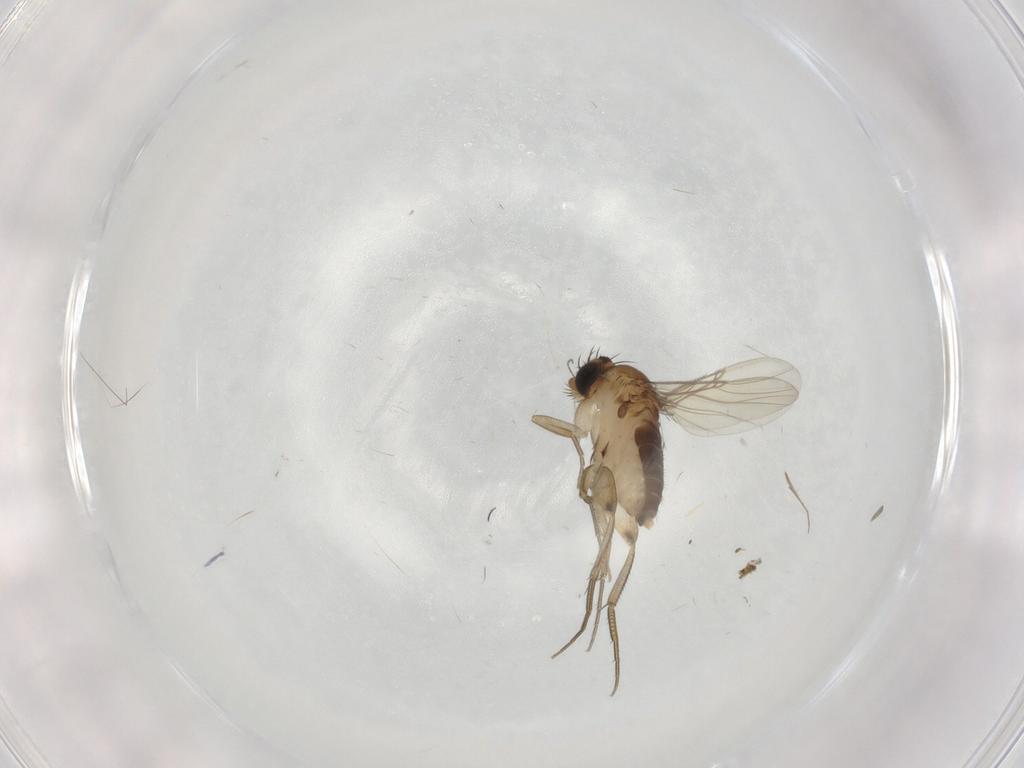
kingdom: Animalia
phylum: Arthropoda
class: Insecta
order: Diptera
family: Phoridae
